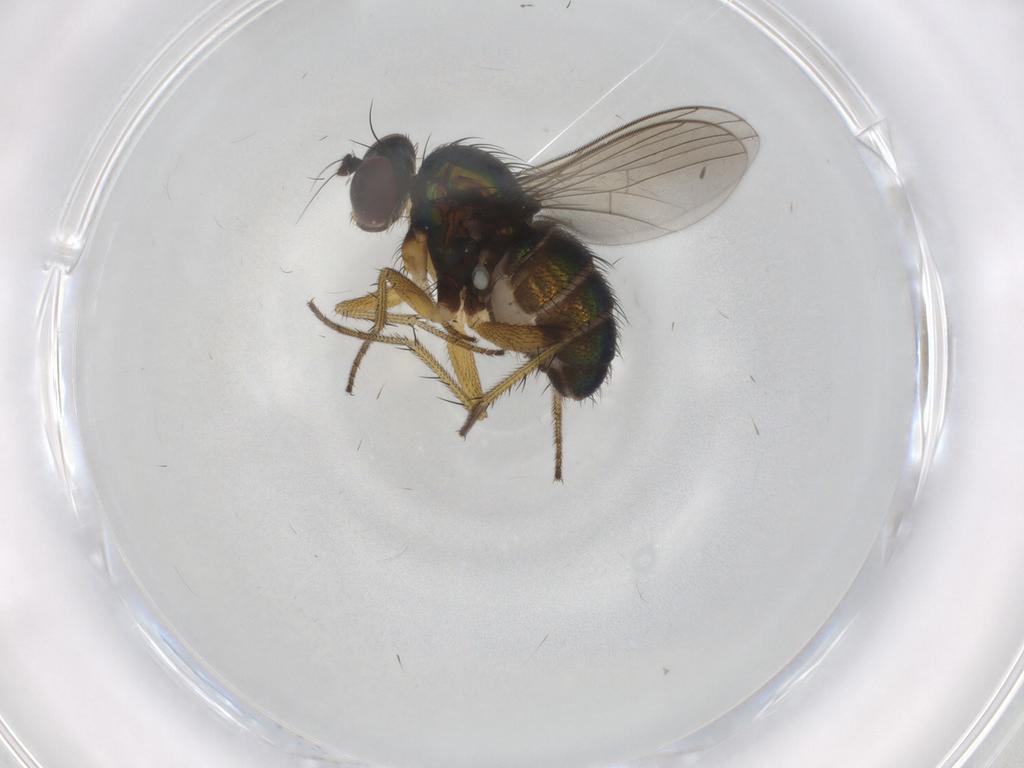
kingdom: Animalia
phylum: Arthropoda
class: Insecta
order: Diptera
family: Dolichopodidae
